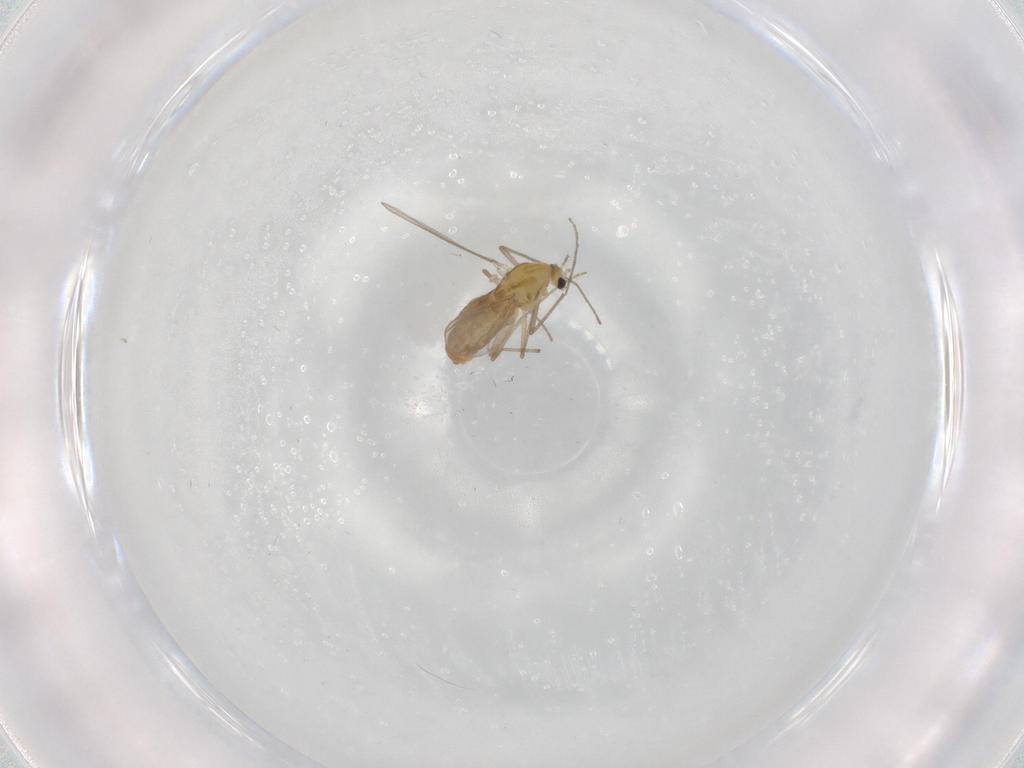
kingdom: Animalia
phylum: Arthropoda
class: Insecta
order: Diptera
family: Chironomidae
